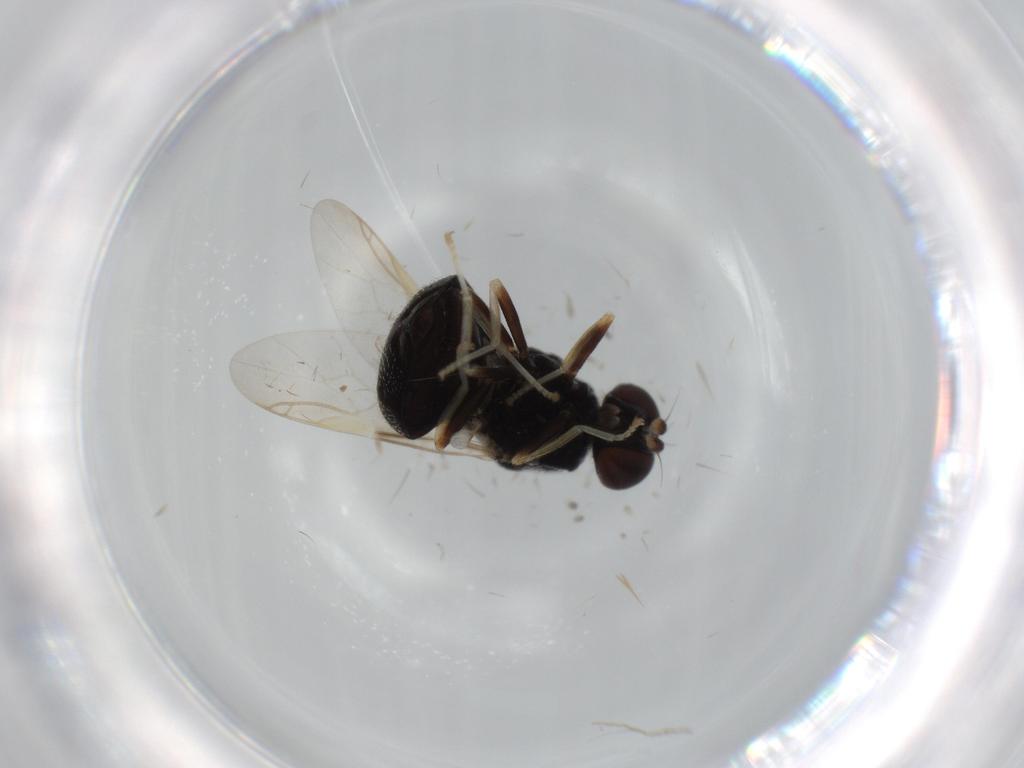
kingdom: Animalia
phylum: Arthropoda
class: Insecta
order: Diptera
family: Stratiomyidae
